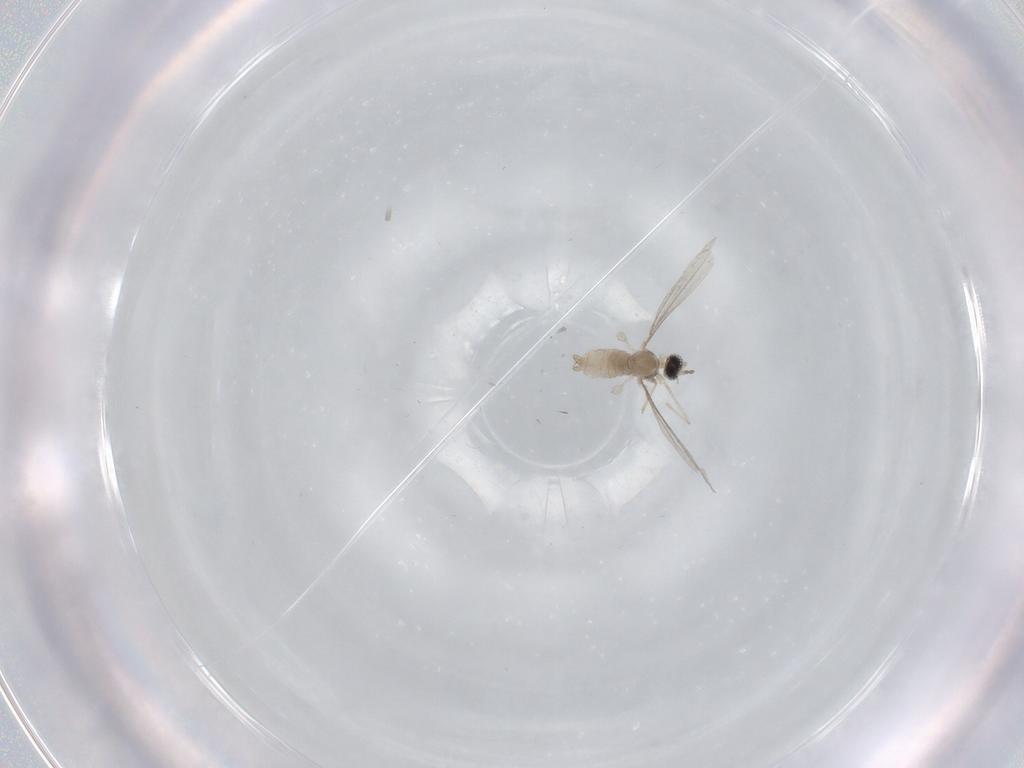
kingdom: Animalia
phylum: Arthropoda
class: Insecta
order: Diptera
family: Cecidomyiidae
